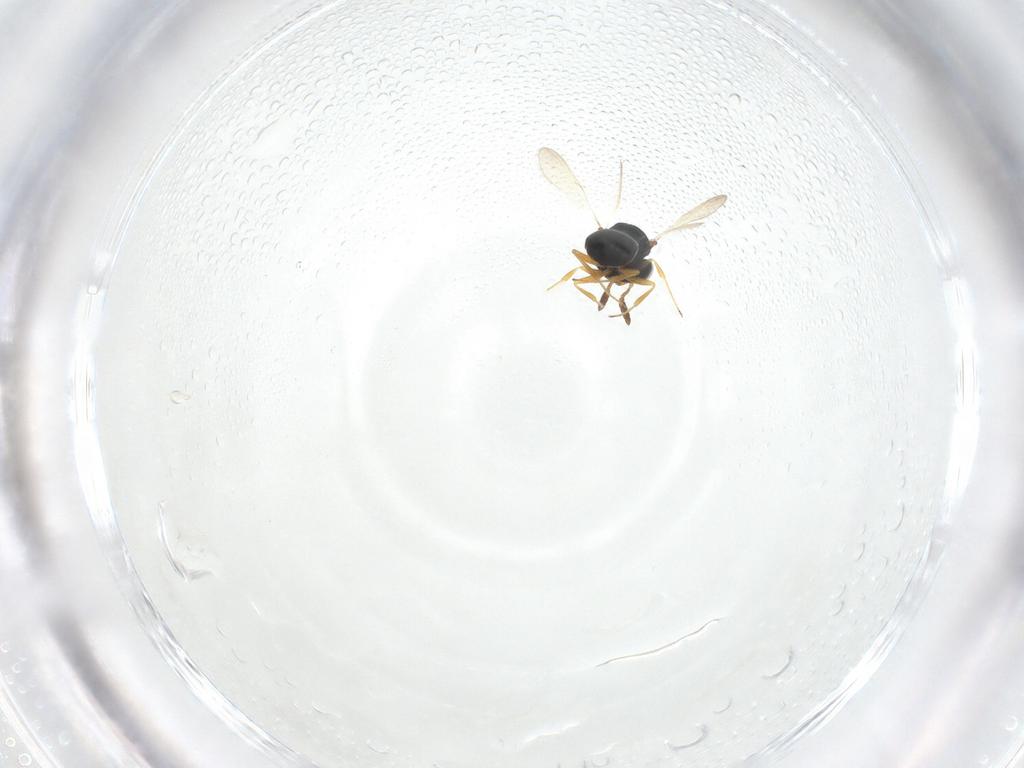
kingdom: Animalia
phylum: Arthropoda
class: Insecta
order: Hymenoptera
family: Scelionidae
